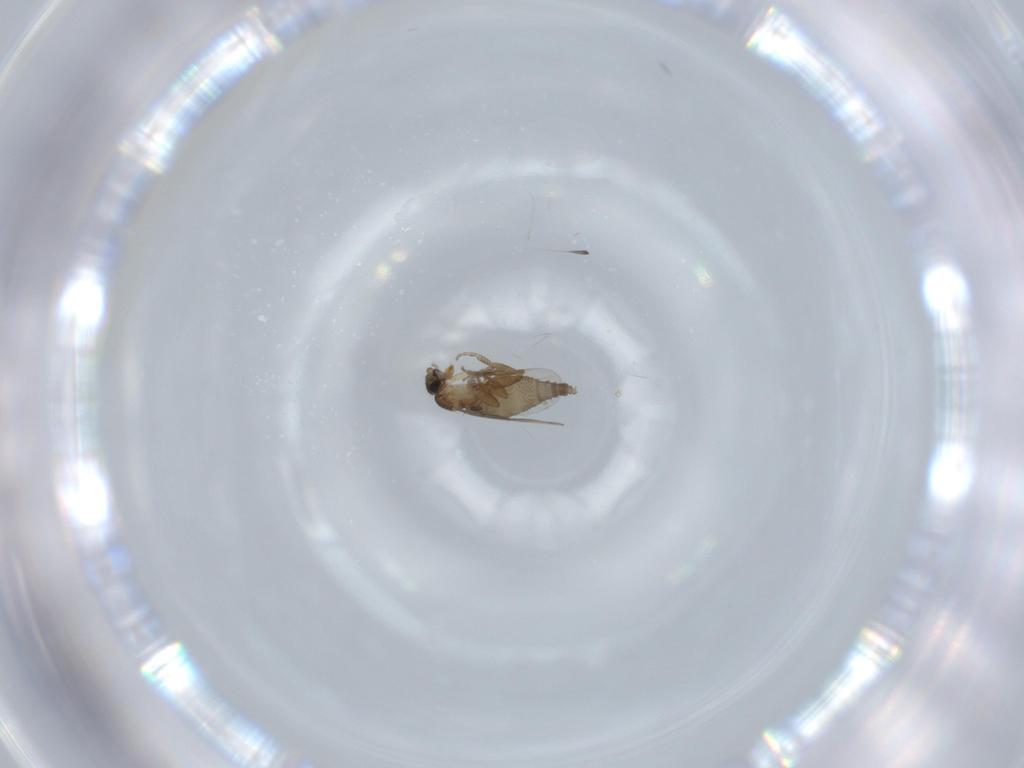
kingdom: Animalia
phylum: Arthropoda
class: Insecta
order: Diptera
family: Phoridae
